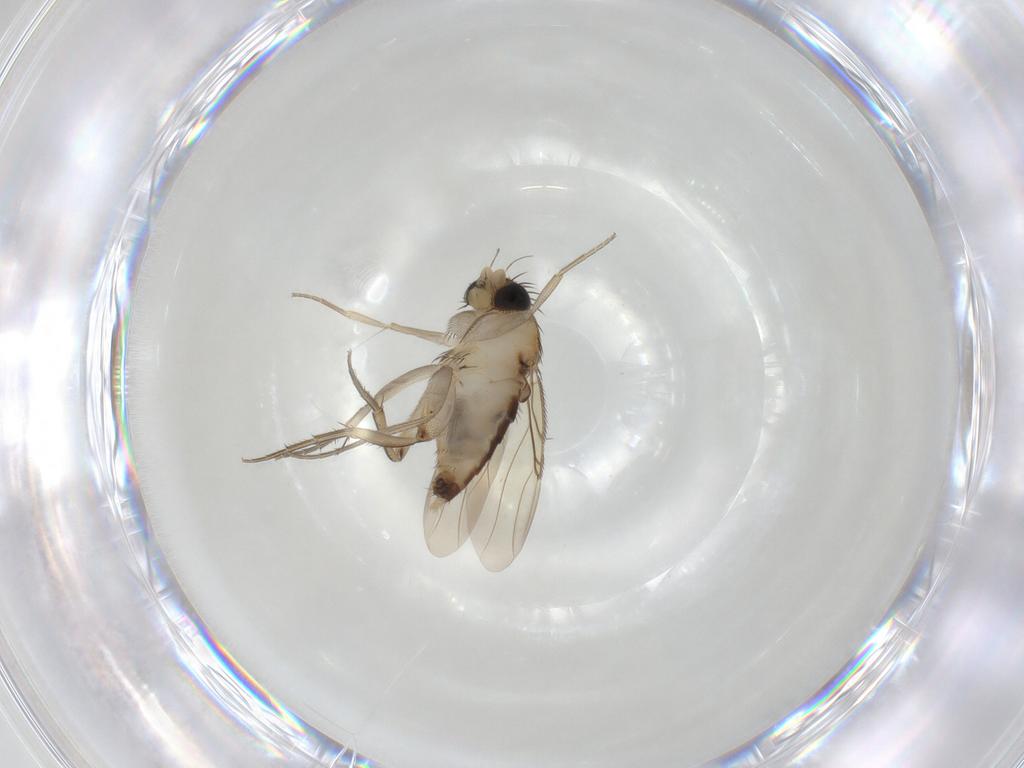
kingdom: Animalia
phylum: Arthropoda
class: Insecta
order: Diptera
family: Phoridae
